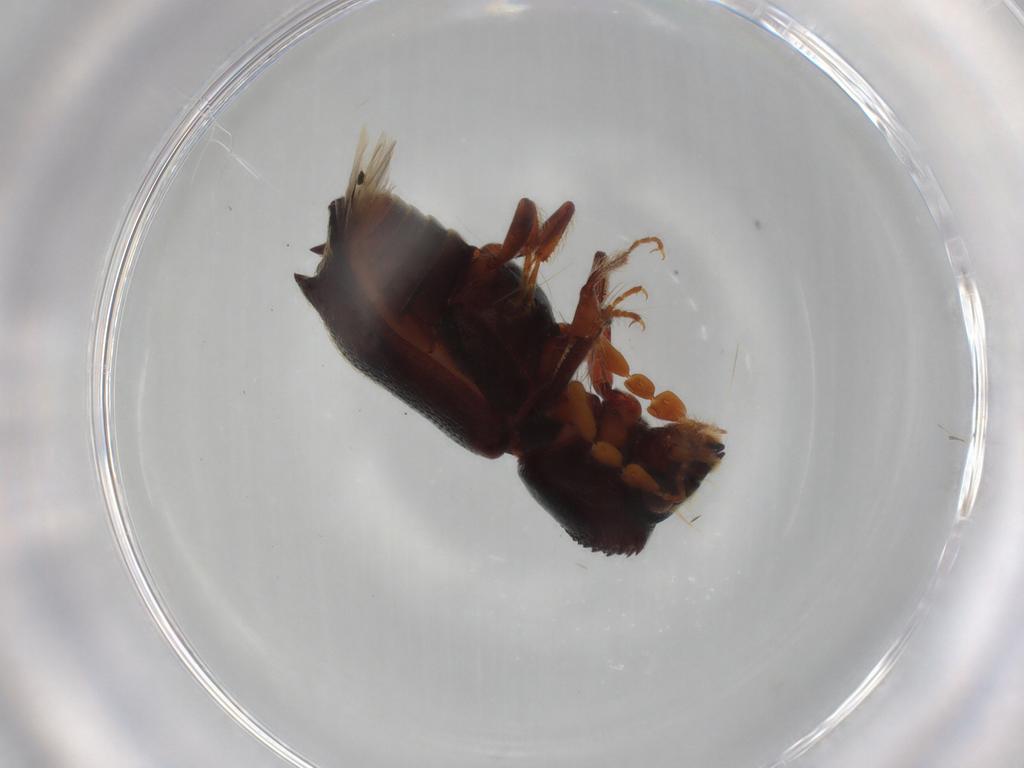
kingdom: Animalia
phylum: Arthropoda
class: Insecta
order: Coleoptera
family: Bostrichidae
